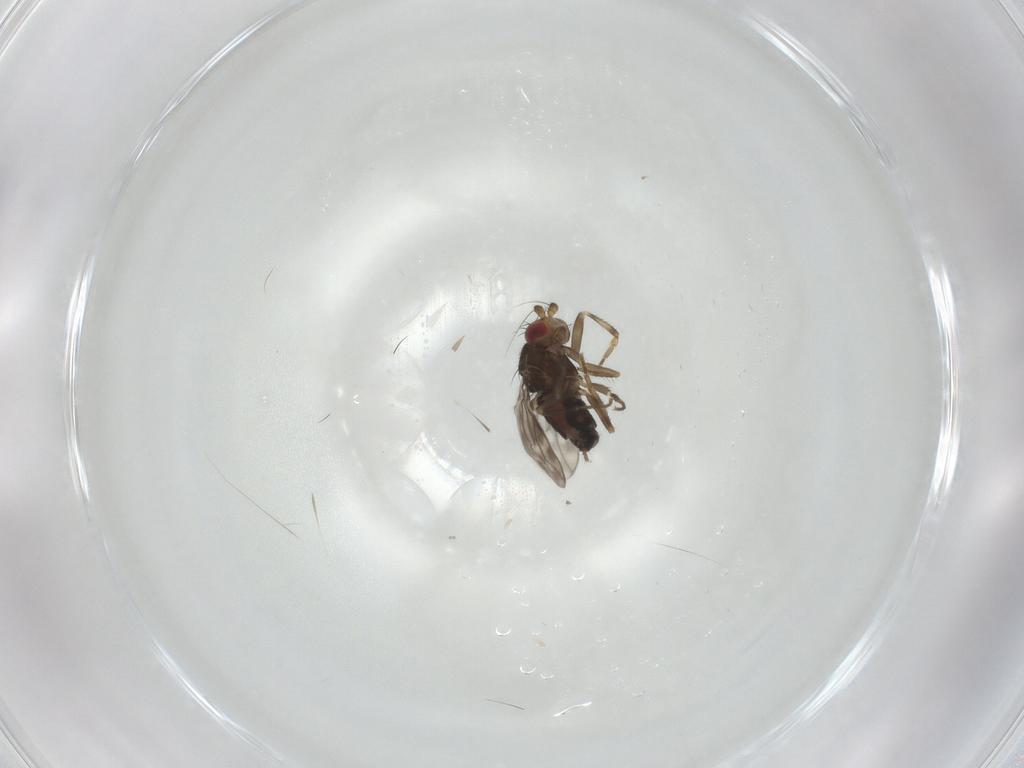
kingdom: Animalia
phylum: Arthropoda
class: Insecta
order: Diptera
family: Sphaeroceridae
